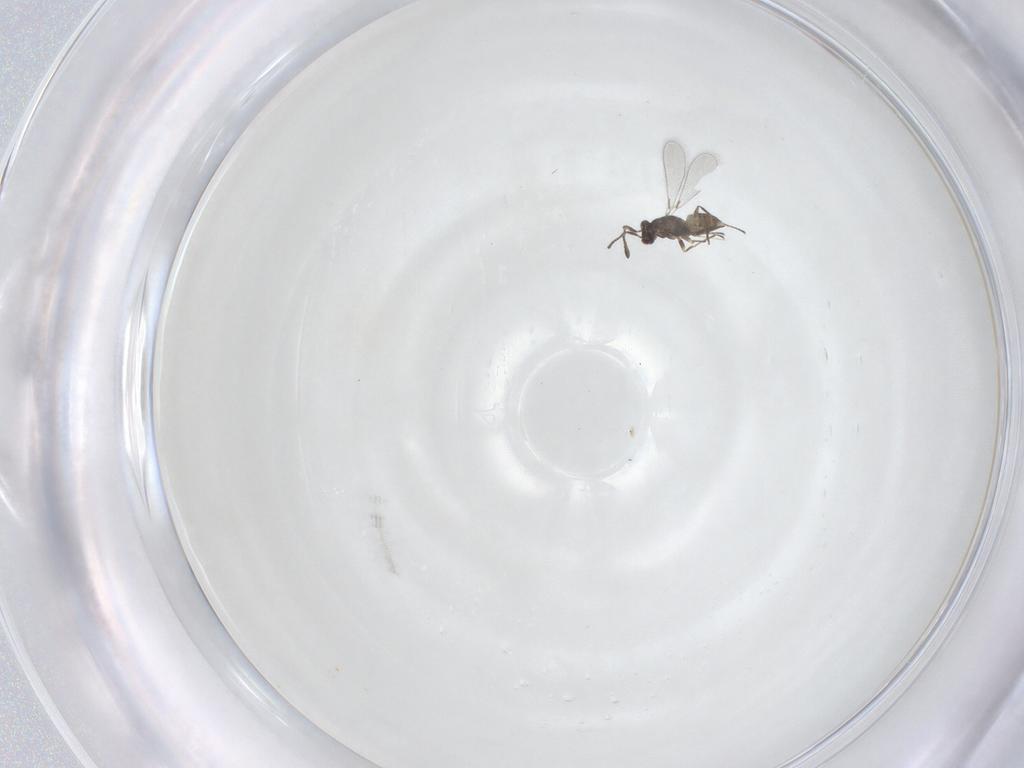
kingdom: Animalia
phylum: Arthropoda
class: Insecta
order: Hymenoptera
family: Mymaridae
